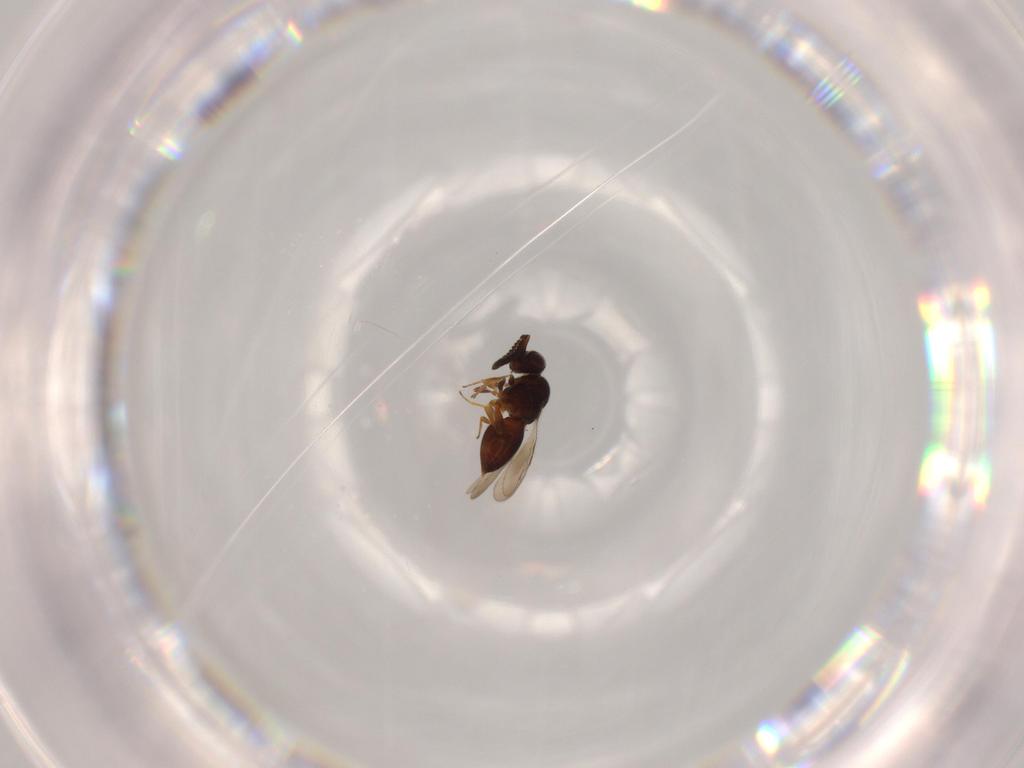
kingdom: Animalia
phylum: Arthropoda
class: Insecta
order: Hymenoptera
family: Ceraphronidae
